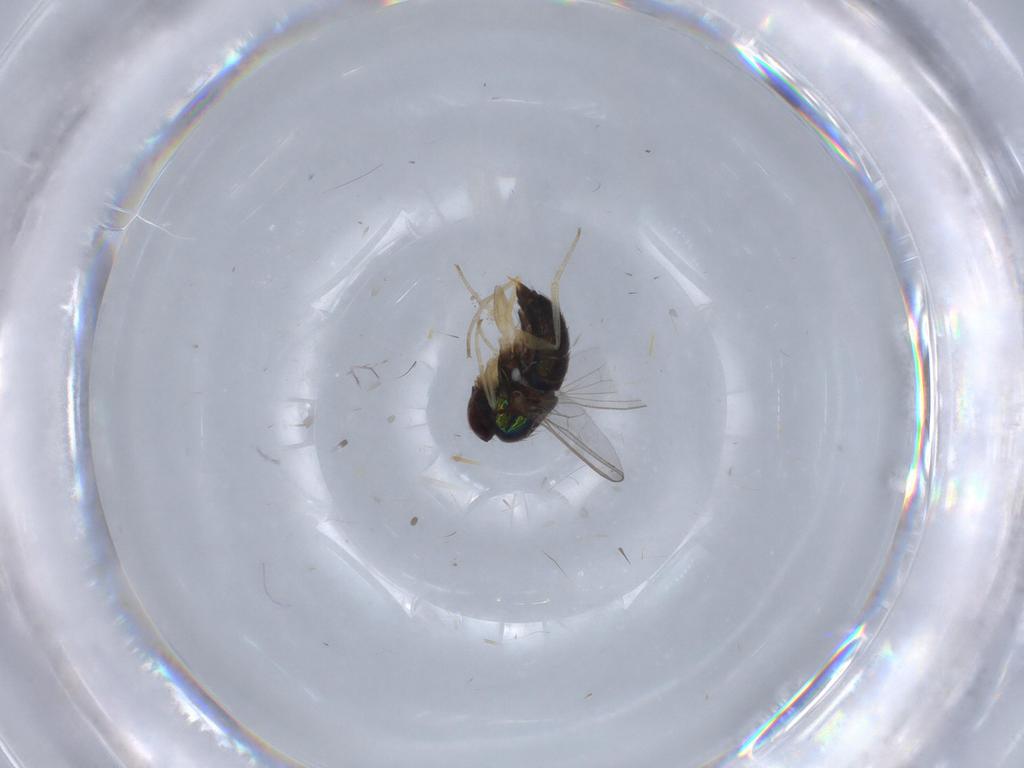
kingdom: Animalia
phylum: Arthropoda
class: Insecta
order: Diptera
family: Dolichopodidae
